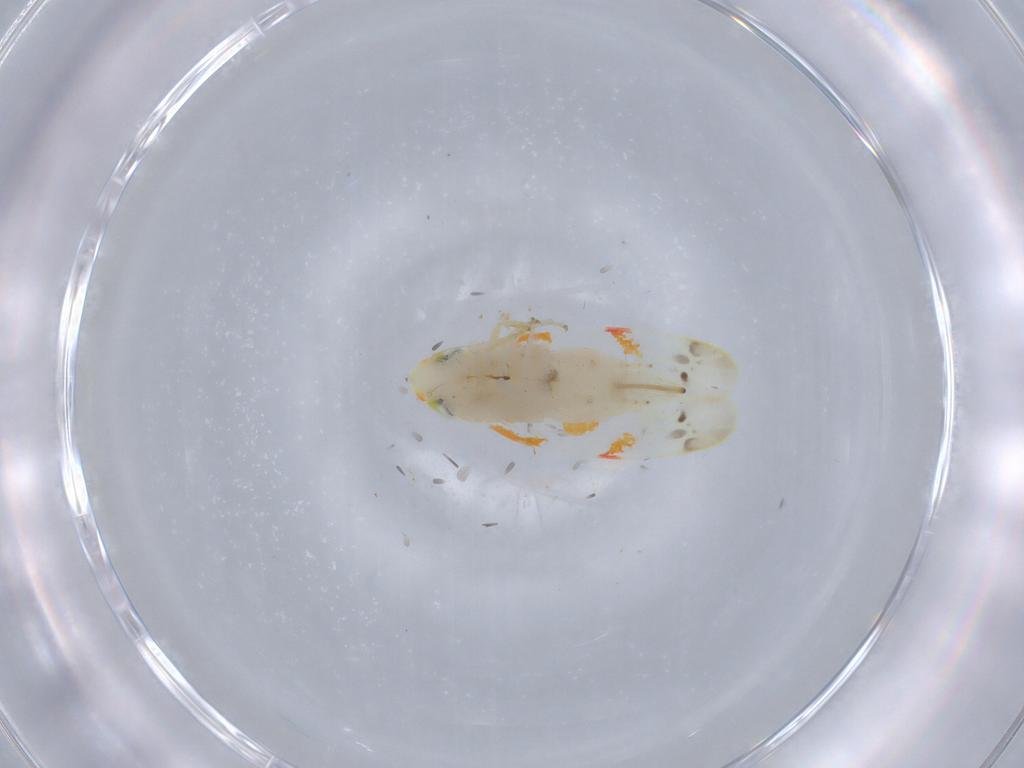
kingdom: Animalia
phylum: Arthropoda
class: Insecta
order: Hemiptera
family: Cicadellidae
